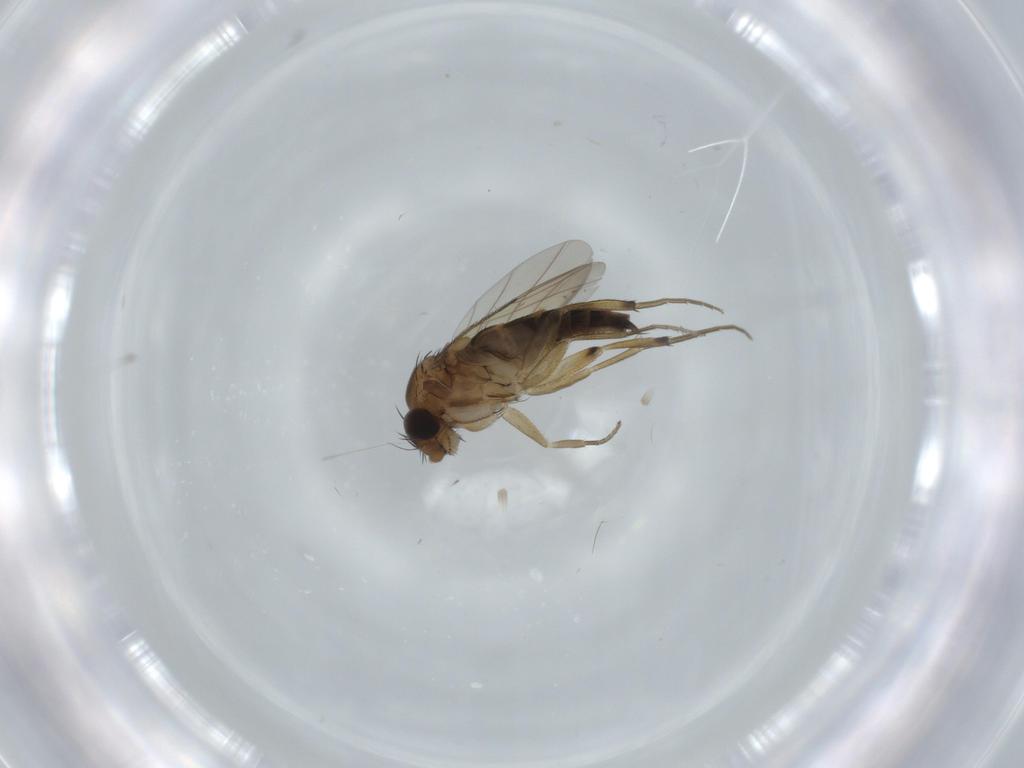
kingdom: Animalia
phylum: Arthropoda
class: Insecta
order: Diptera
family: Phoridae
